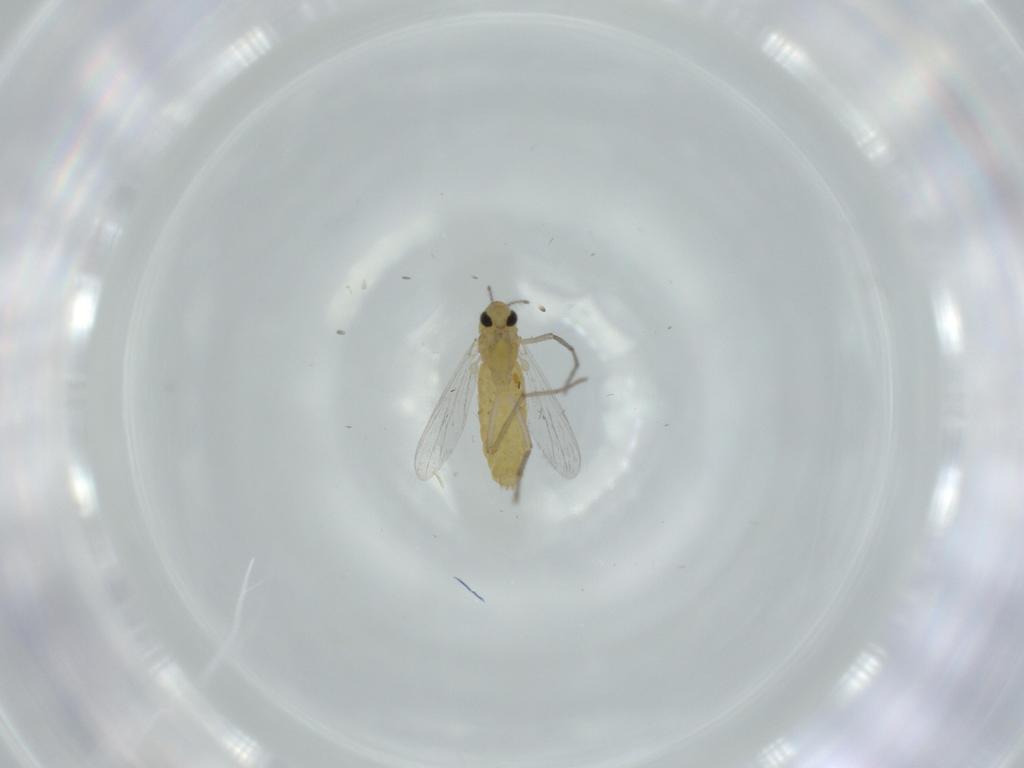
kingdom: Animalia
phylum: Arthropoda
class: Insecta
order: Diptera
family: Chironomidae
